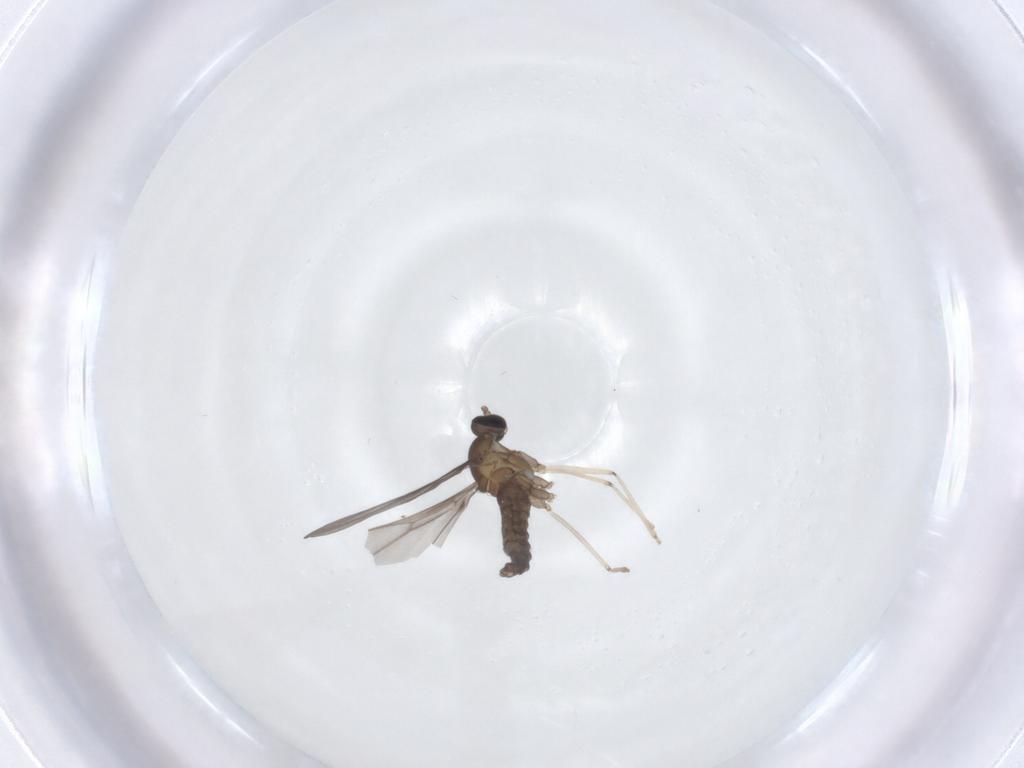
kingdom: Animalia
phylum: Arthropoda
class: Insecta
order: Diptera
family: Cecidomyiidae
